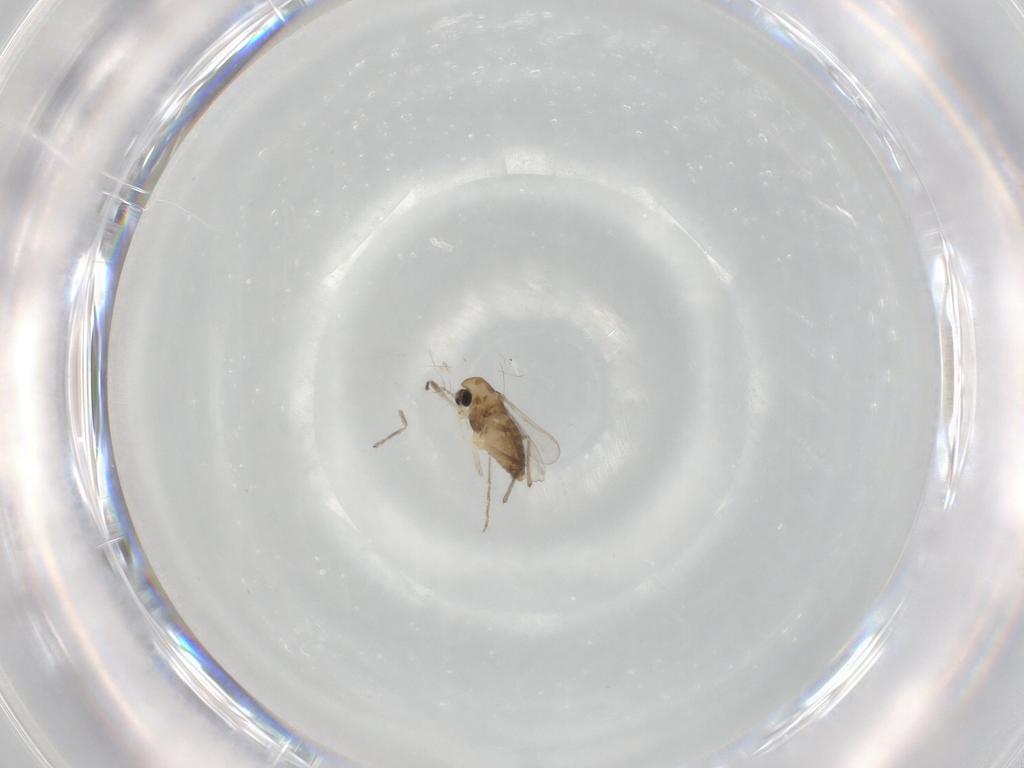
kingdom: Animalia
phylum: Arthropoda
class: Insecta
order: Diptera
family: Chironomidae
